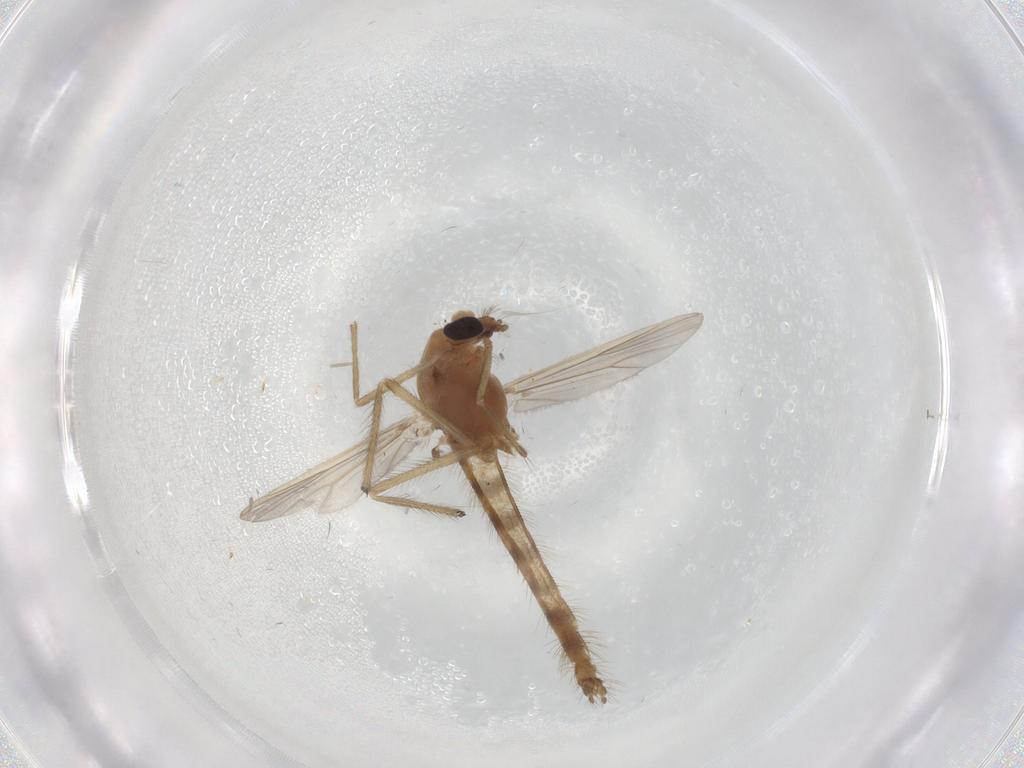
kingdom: Animalia
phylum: Arthropoda
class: Insecta
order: Diptera
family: Chironomidae
